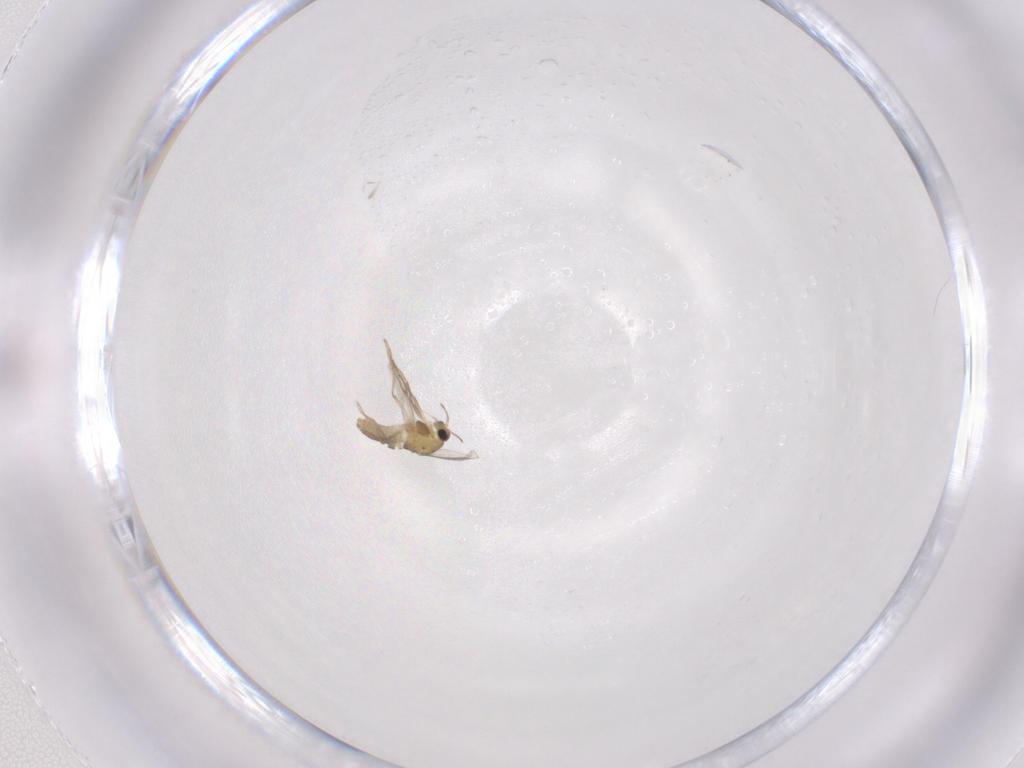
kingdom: Animalia
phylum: Arthropoda
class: Insecta
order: Diptera
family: Chironomidae
